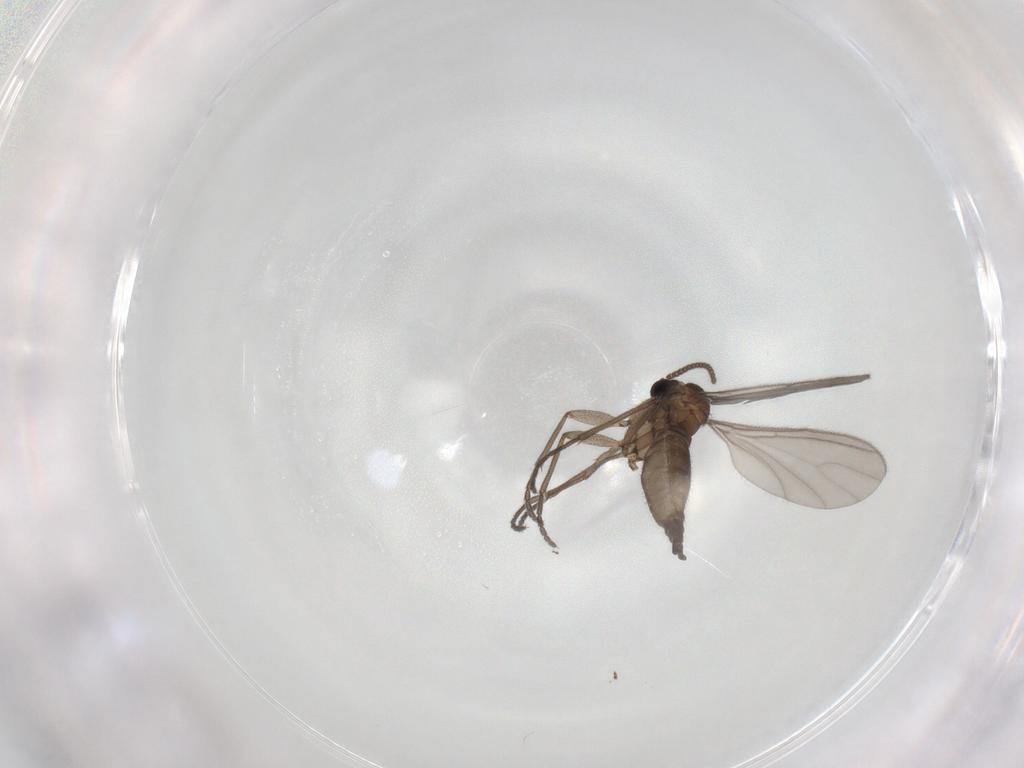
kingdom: Animalia
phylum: Arthropoda
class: Insecta
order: Diptera
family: Sciaridae
